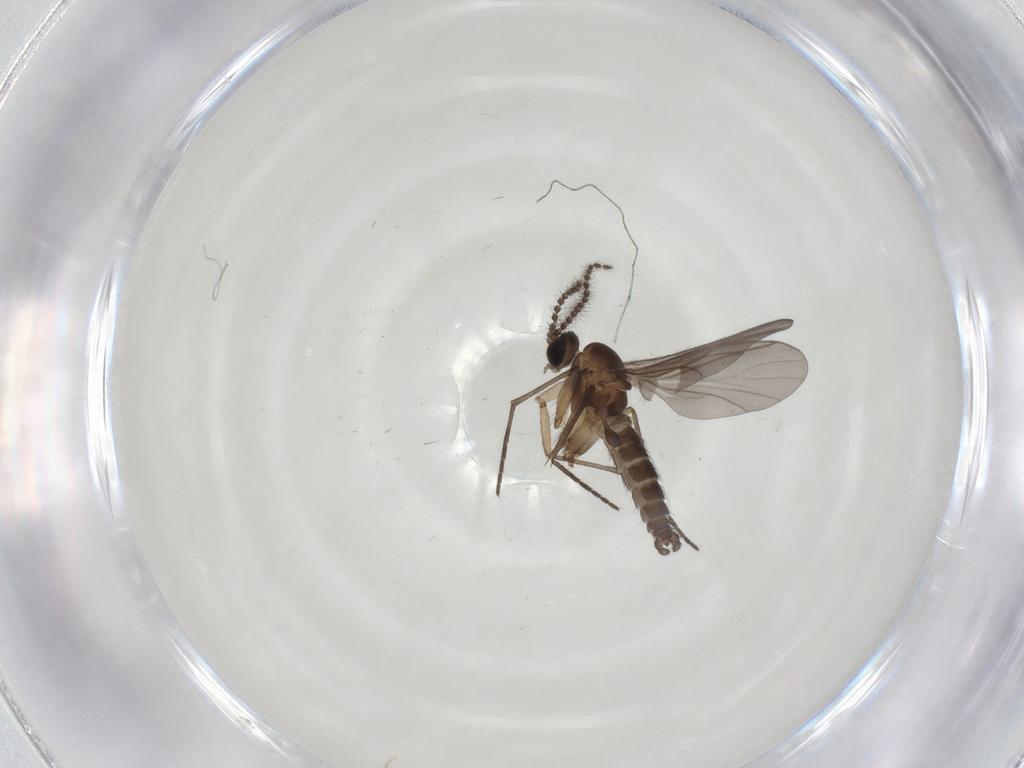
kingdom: Animalia
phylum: Arthropoda
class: Insecta
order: Diptera
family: Sciaridae
